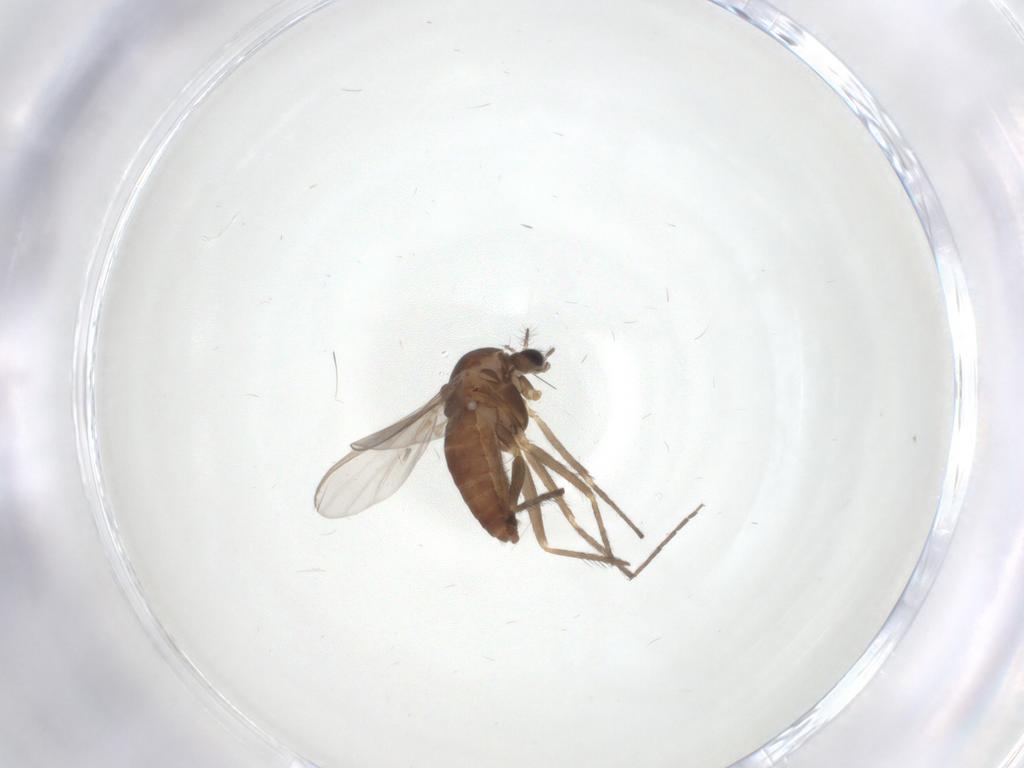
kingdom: Animalia
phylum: Arthropoda
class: Insecta
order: Diptera
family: Chironomidae
